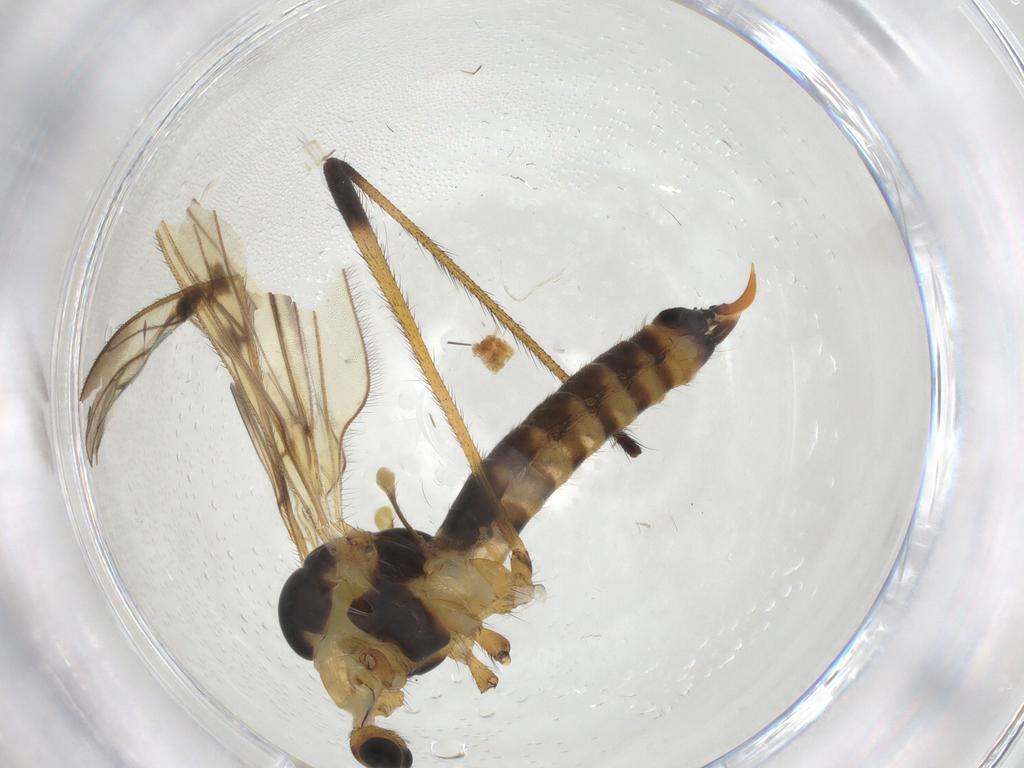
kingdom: Animalia
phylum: Arthropoda
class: Insecta
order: Diptera
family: Phoridae
